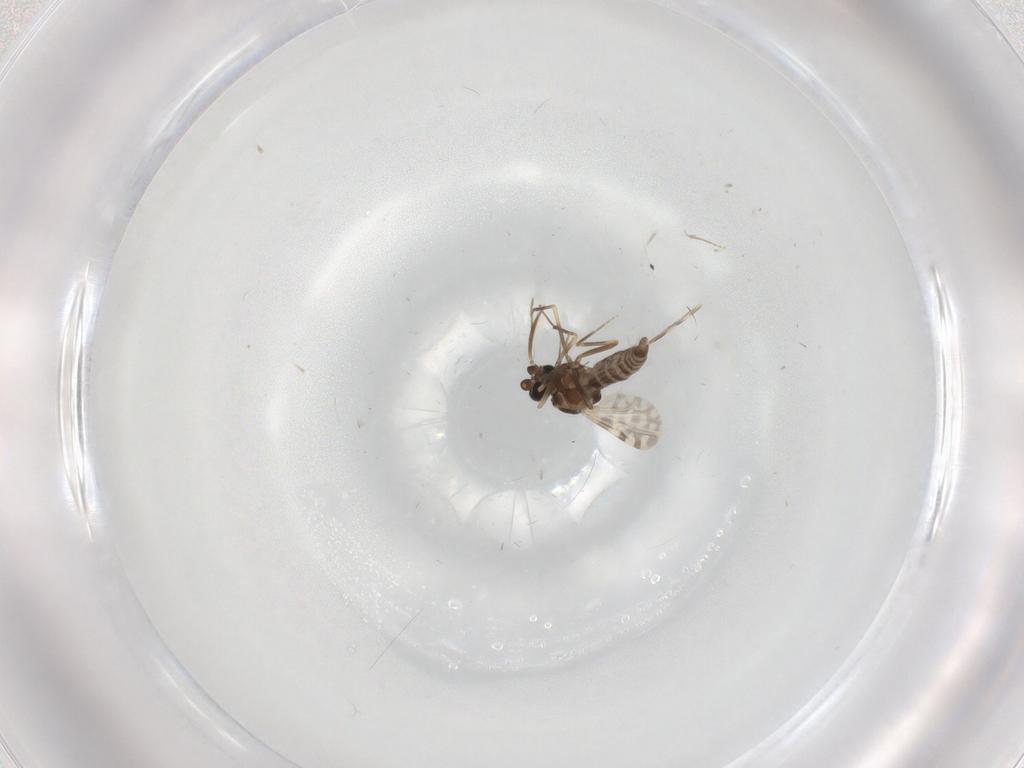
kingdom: Animalia
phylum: Arthropoda
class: Insecta
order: Diptera
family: Ceratopogonidae
